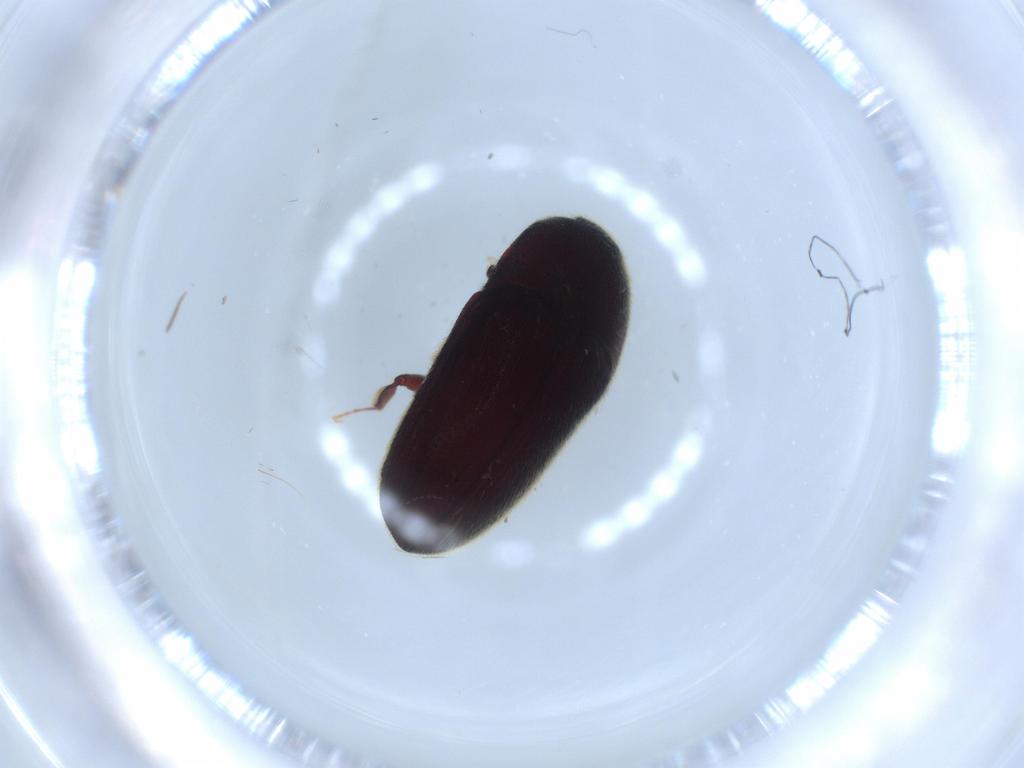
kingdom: Animalia
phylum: Arthropoda
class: Insecta
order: Coleoptera
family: Throscidae
